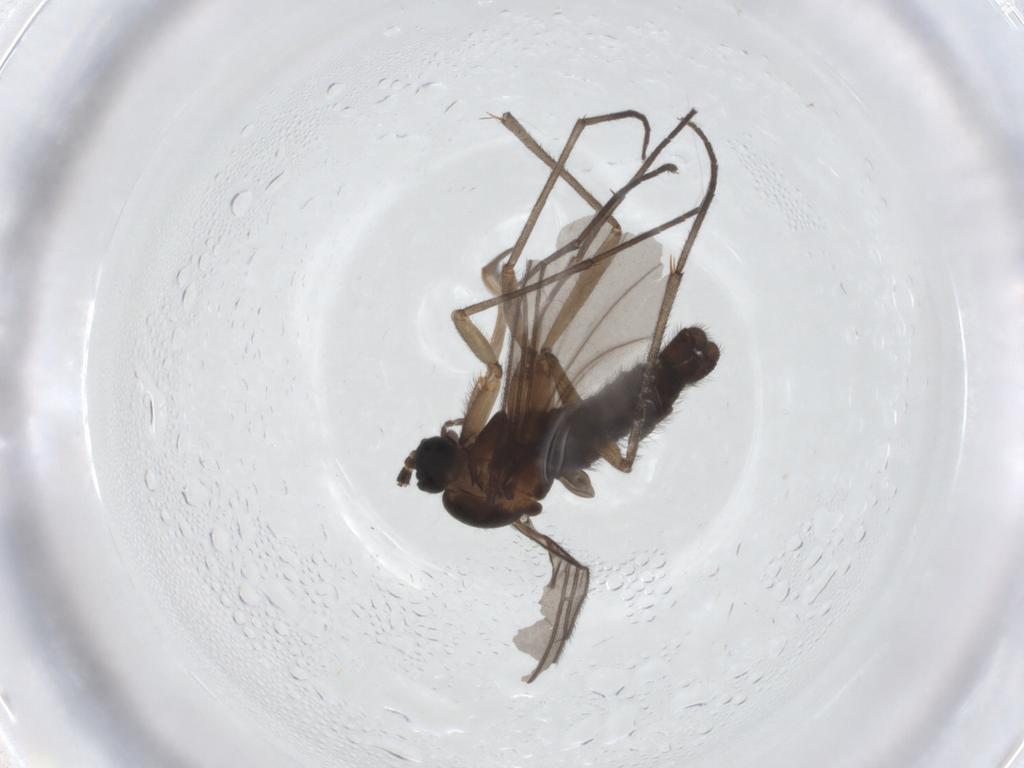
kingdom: Animalia
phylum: Arthropoda
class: Insecta
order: Diptera
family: Sciaridae
